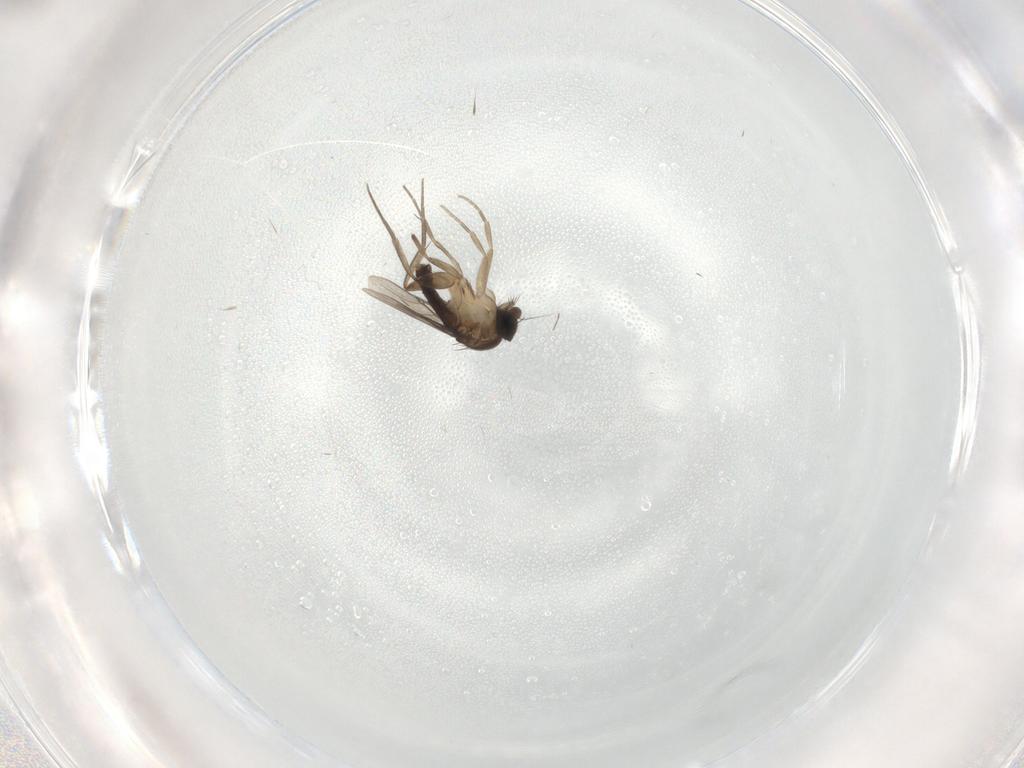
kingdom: Animalia
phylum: Arthropoda
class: Insecta
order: Diptera
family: Phoridae
